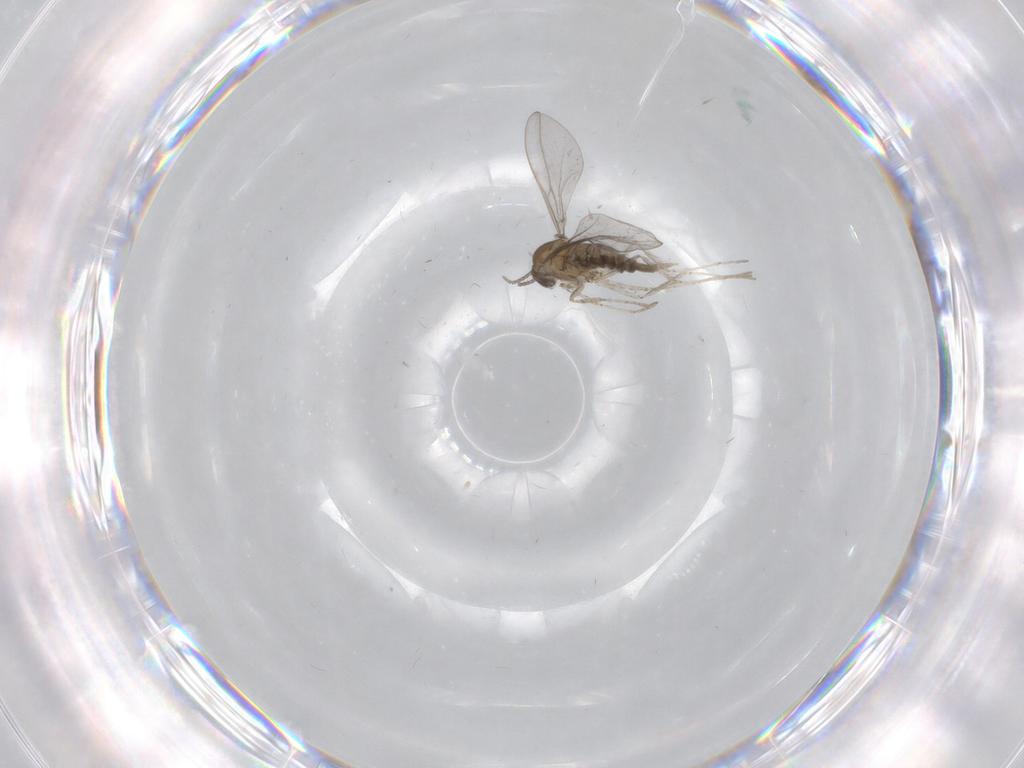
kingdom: Animalia
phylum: Arthropoda
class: Insecta
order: Diptera
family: Cecidomyiidae
